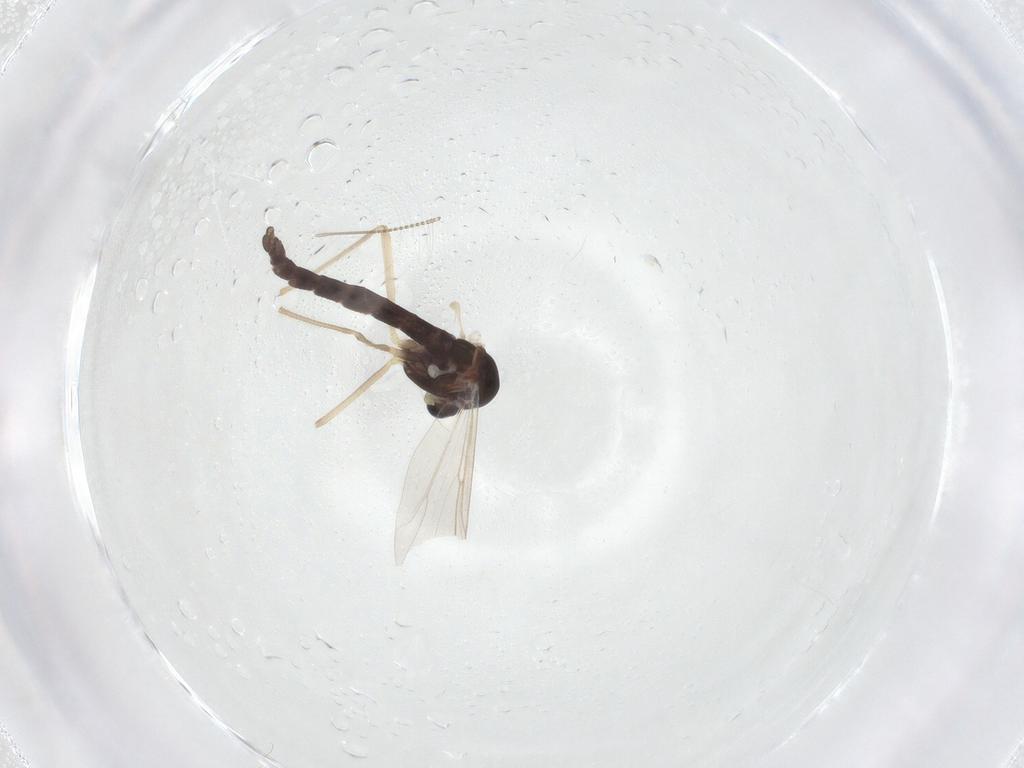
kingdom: Animalia
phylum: Arthropoda
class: Insecta
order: Diptera
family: Chironomidae
